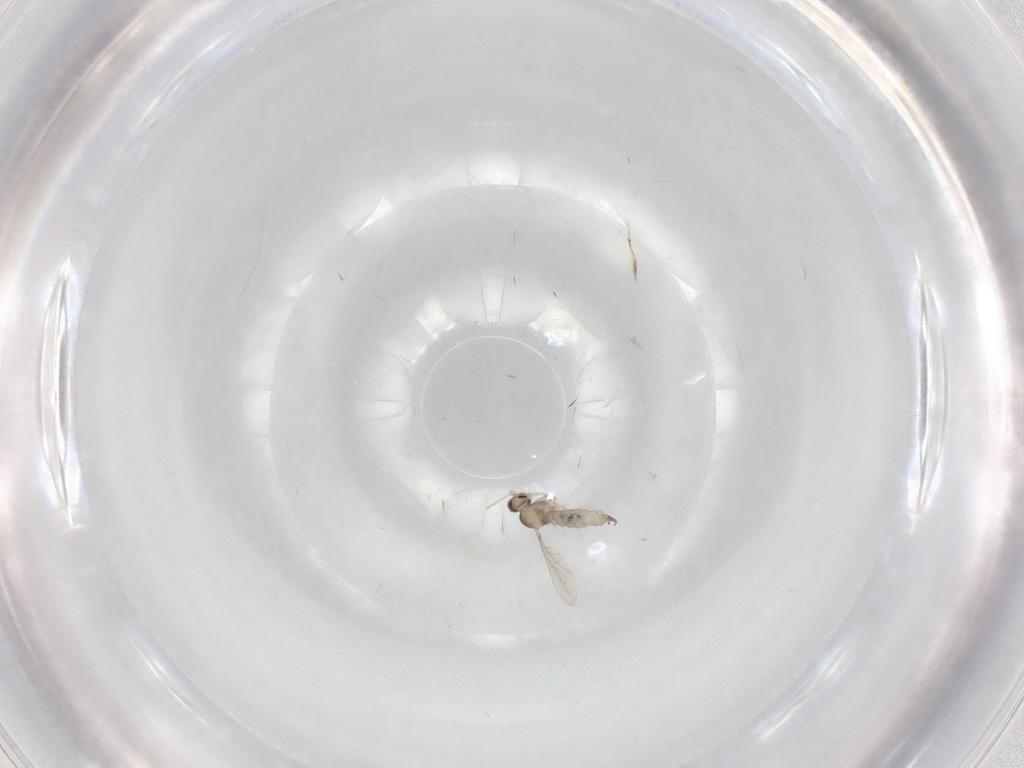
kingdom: Animalia
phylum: Arthropoda
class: Insecta
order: Diptera
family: Cecidomyiidae
